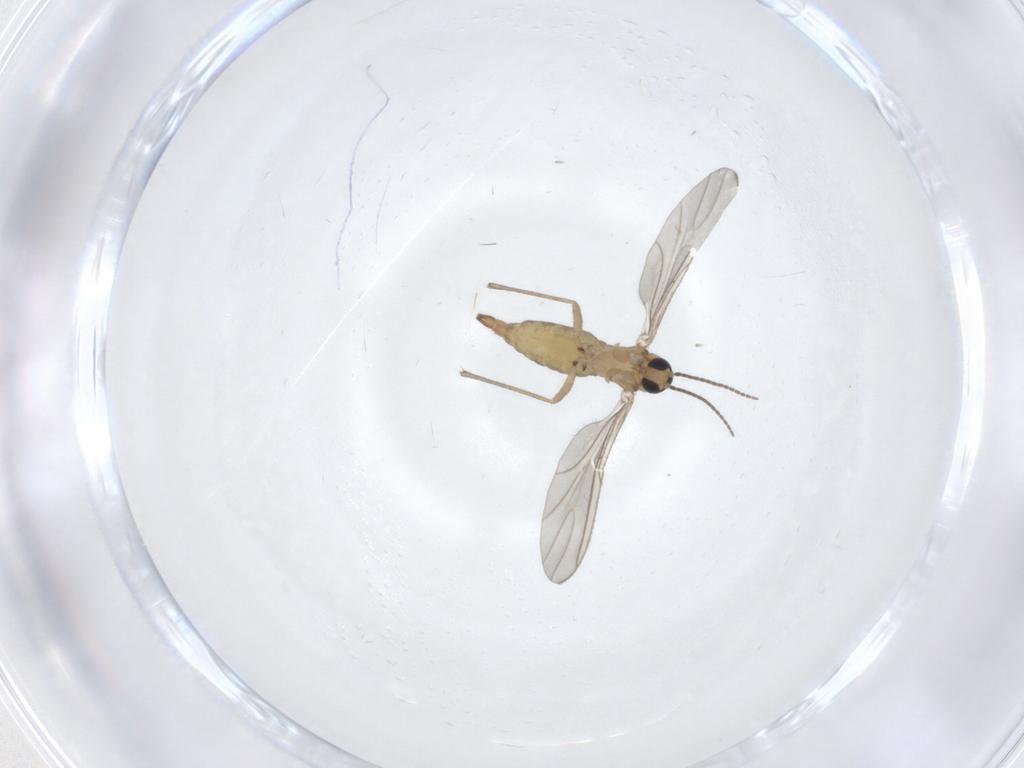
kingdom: Animalia
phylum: Arthropoda
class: Insecta
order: Diptera
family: Sciaridae
